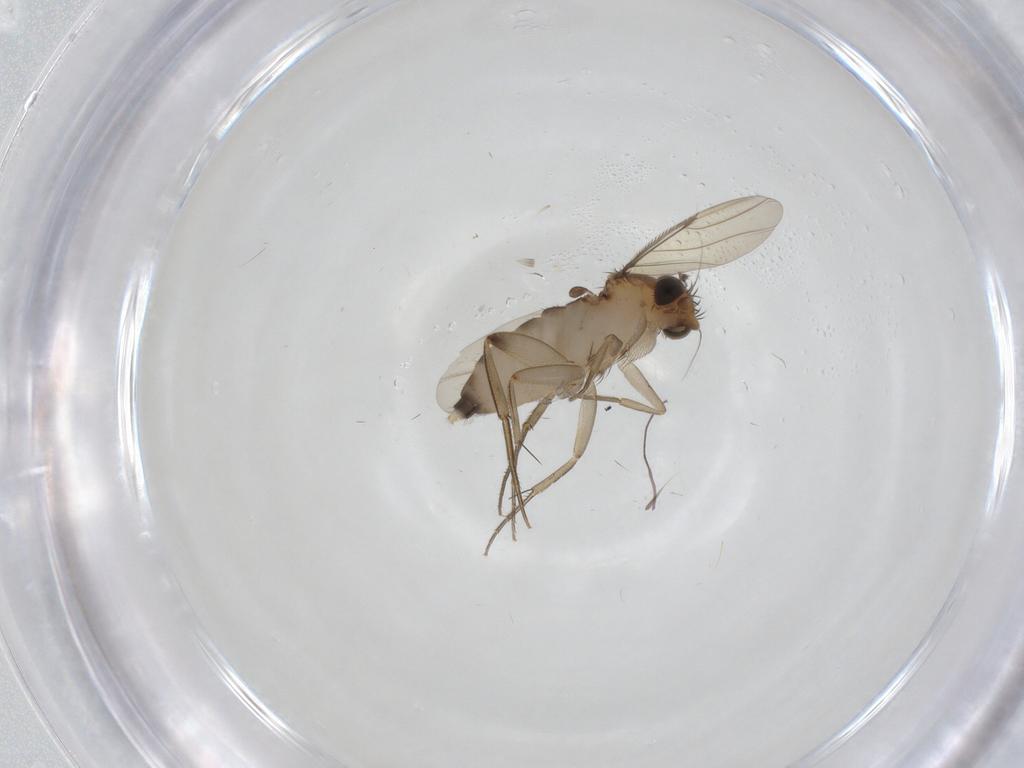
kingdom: Animalia
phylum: Arthropoda
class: Insecta
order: Diptera
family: Phoridae
